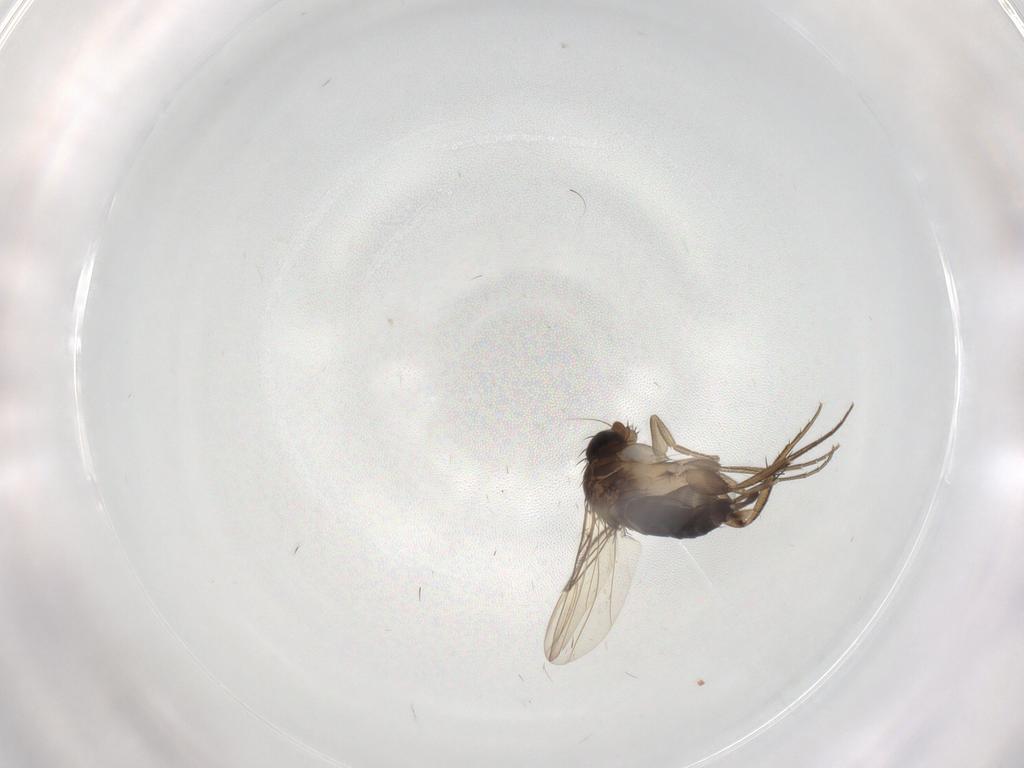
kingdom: Animalia
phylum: Arthropoda
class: Insecta
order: Diptera
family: Phoridae
